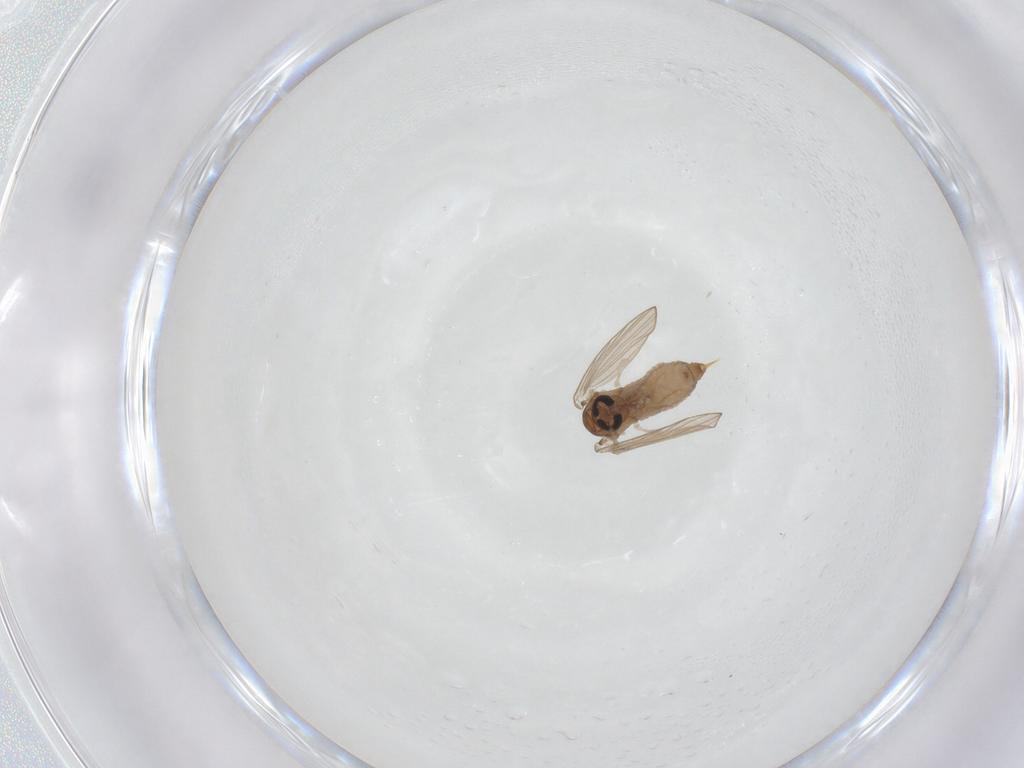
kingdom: Animalia
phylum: Arthropoda
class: Insecta
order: Diptera
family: Psychodidae
